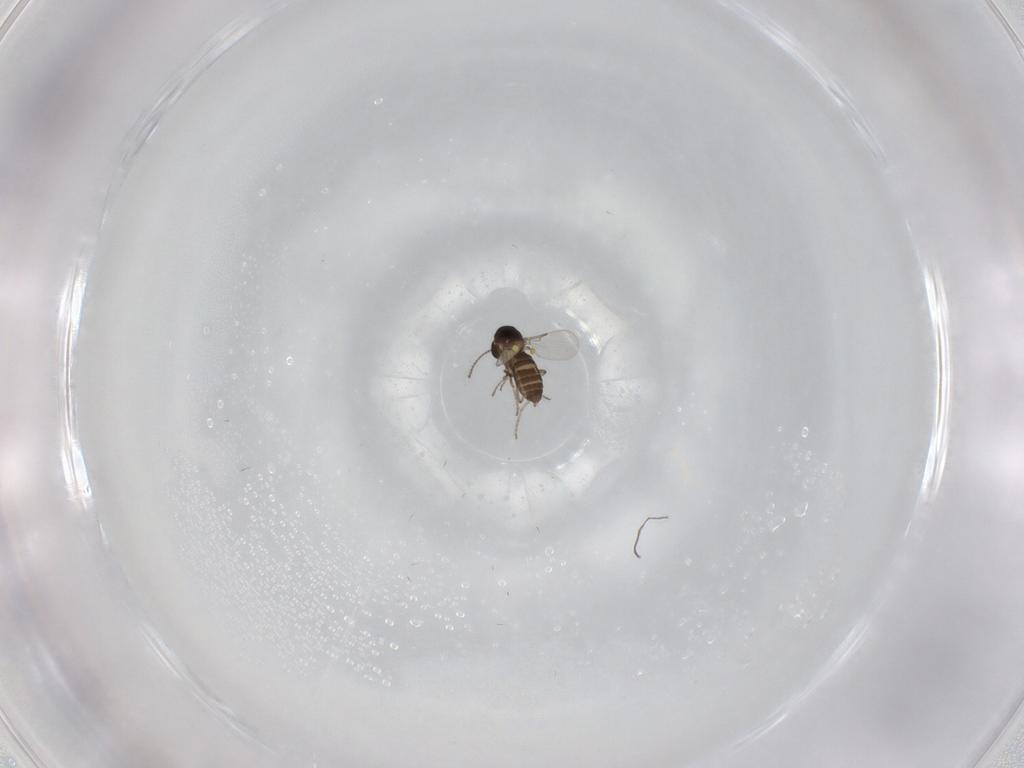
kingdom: Animalia
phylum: Arthropoda
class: Insecta
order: Diptera
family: Ceratopogonidae
